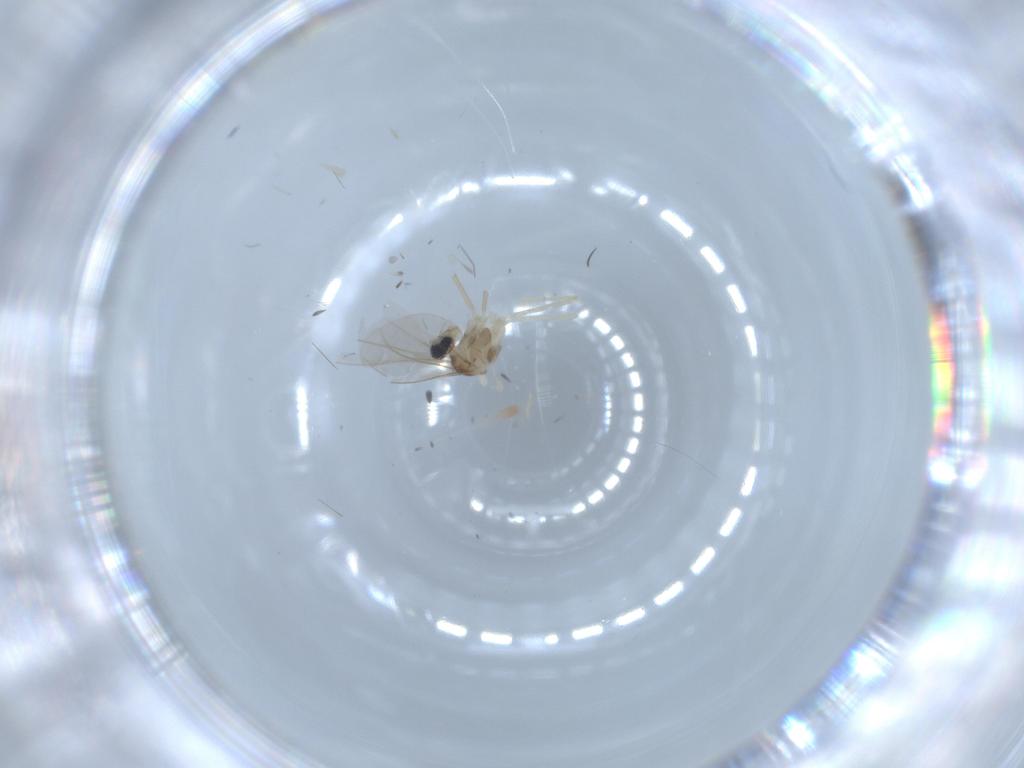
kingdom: Animalia
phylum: Arthropoda
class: Insecta
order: Diptera
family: Cecidomyiidae
